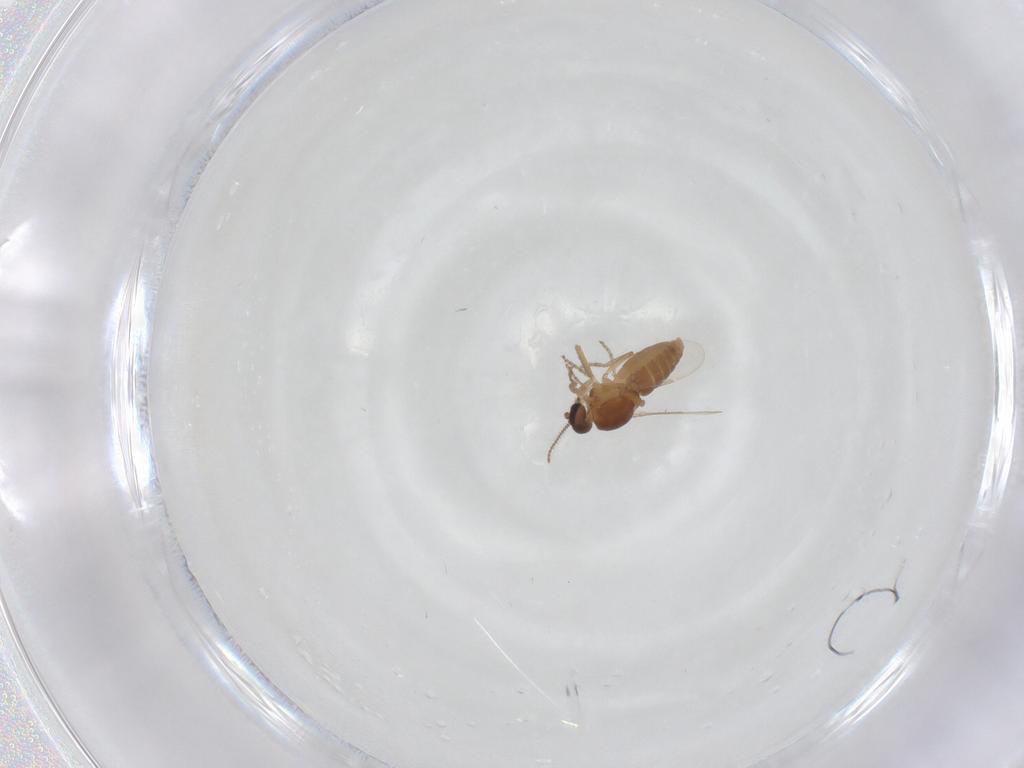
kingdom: Animalia
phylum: Arthropoda
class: Insecta
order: Diptera
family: Ceratopogonidae
